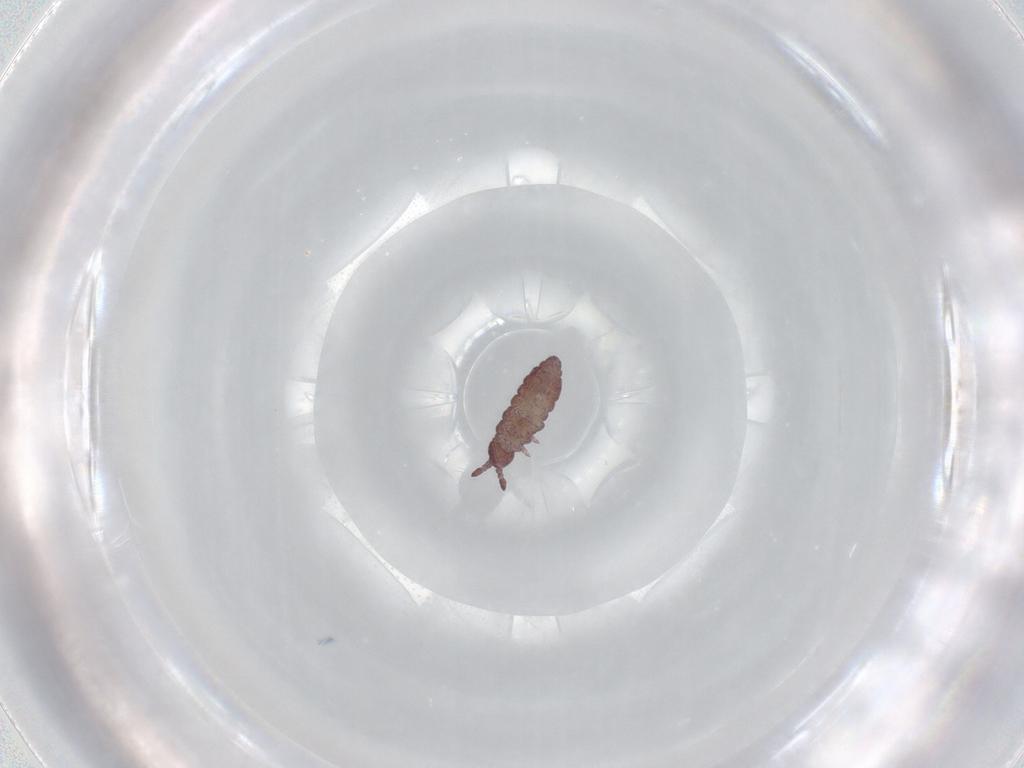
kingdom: Animalia
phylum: Arthropoda
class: Collembola
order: Poduromorpha
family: Hypogastruridae
